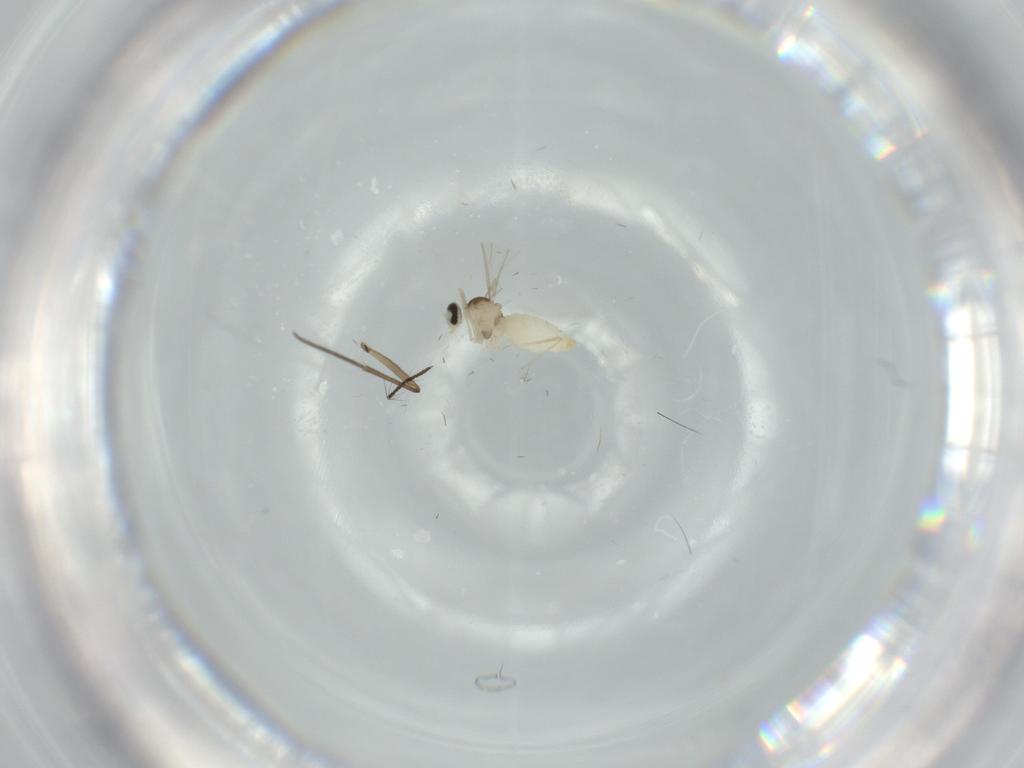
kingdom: Animalia
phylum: Arthropoda
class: Insecta
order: Diptera
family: Cecidomyiidae
